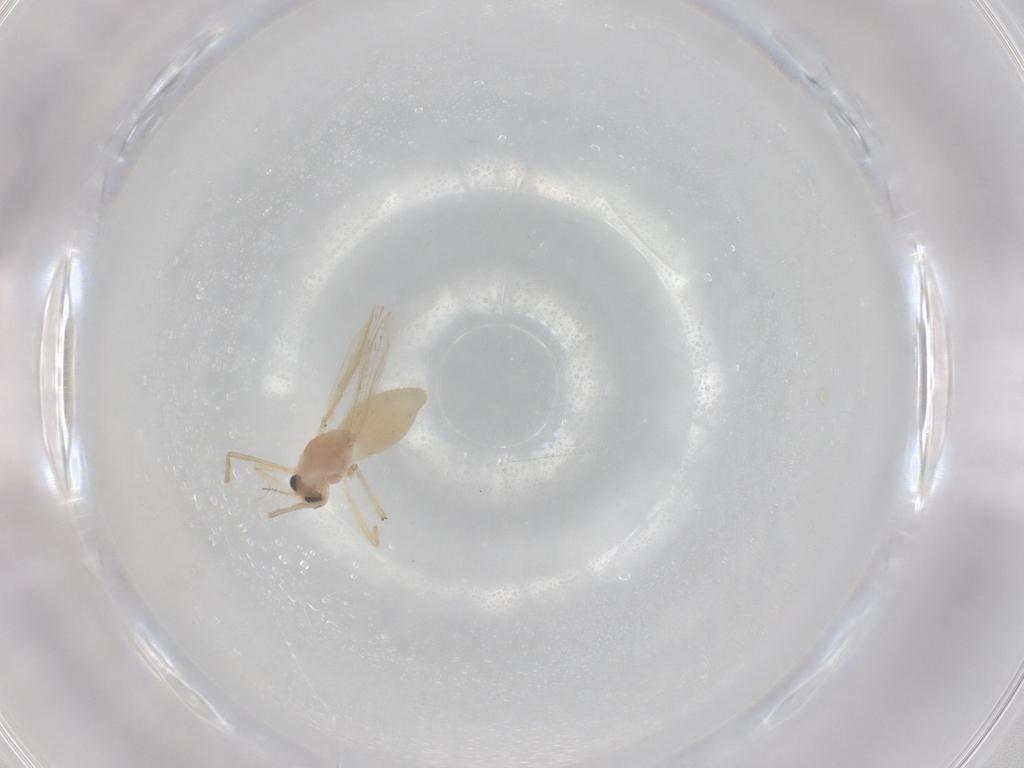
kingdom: Animalia
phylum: Arthropoda
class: Insecta
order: Diptera
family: Chironomidae
